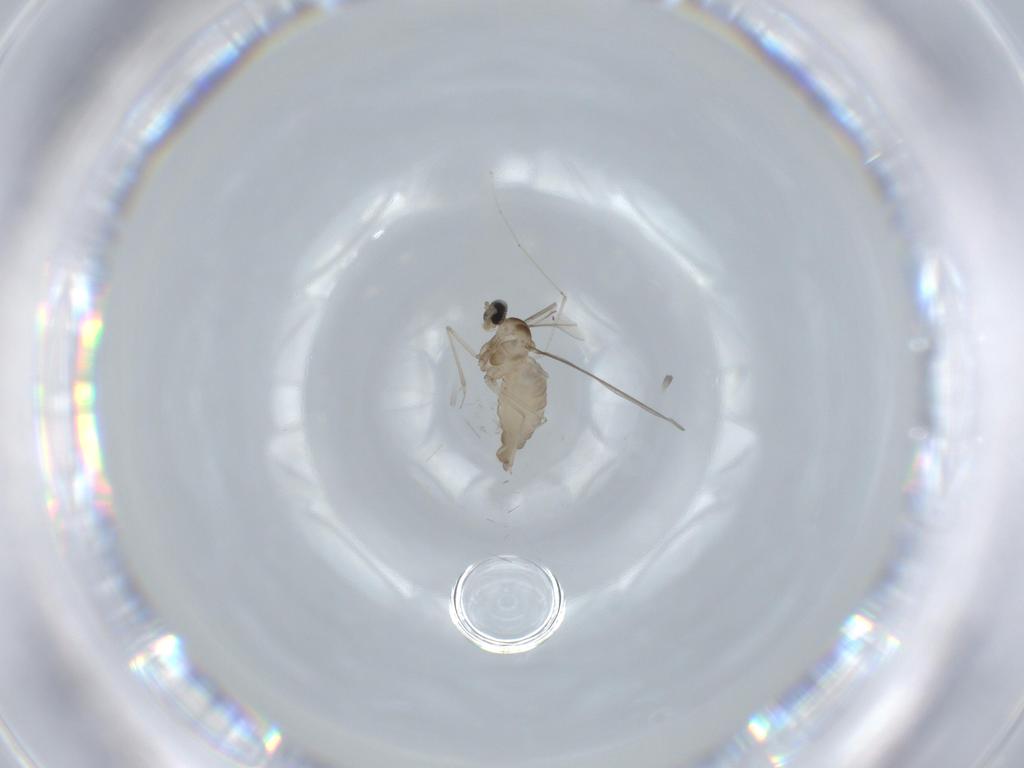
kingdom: Animalia
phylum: Arthropoda
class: Insecta
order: Diptera
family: Cecidomyiidae
